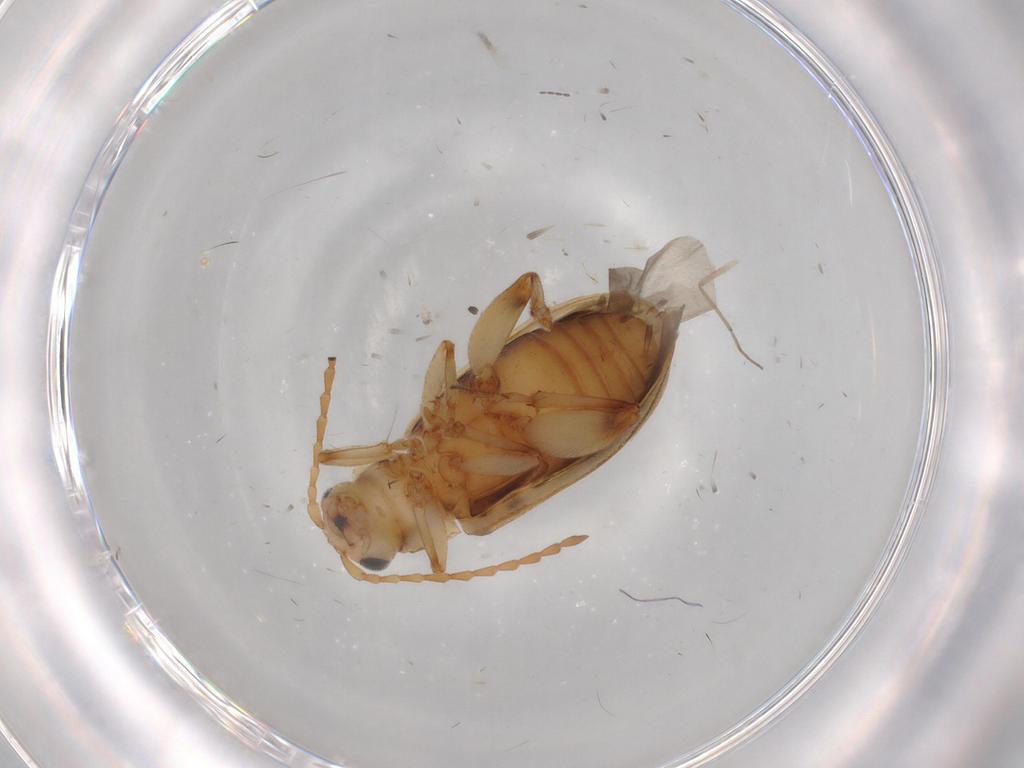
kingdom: Animalia
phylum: Arthropoda
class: Insecta
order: Coleoptera
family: Chrysomelidae
